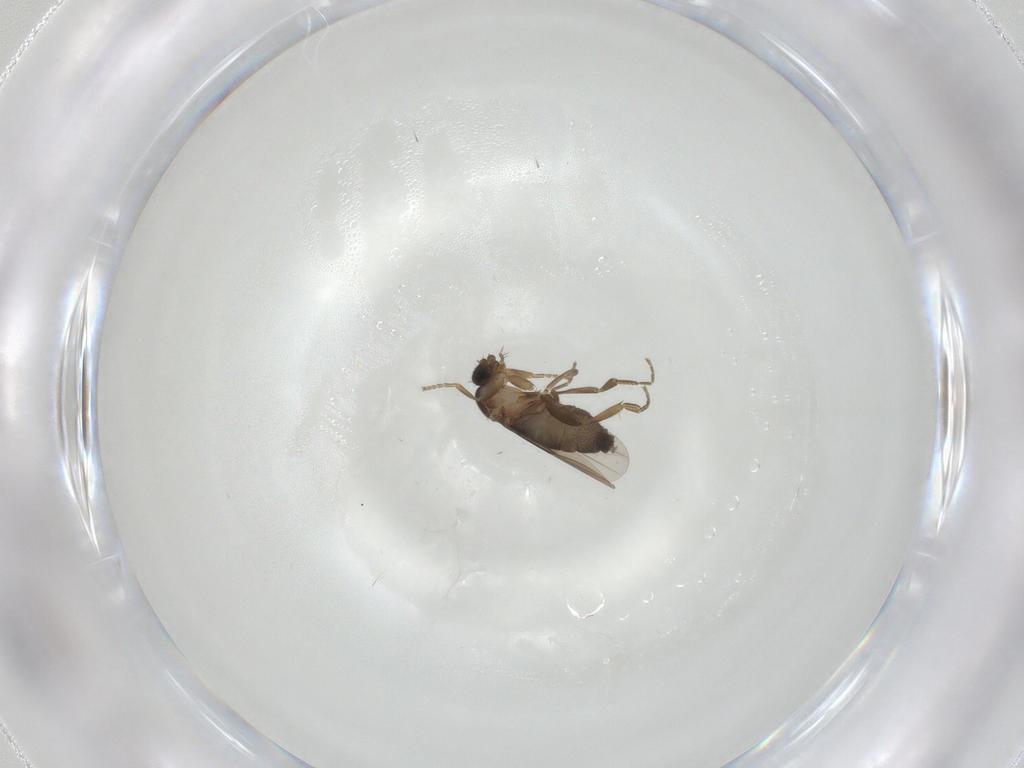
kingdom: Animalia
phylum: Arthropoda
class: Insecta
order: Diptera
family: Phoridae
